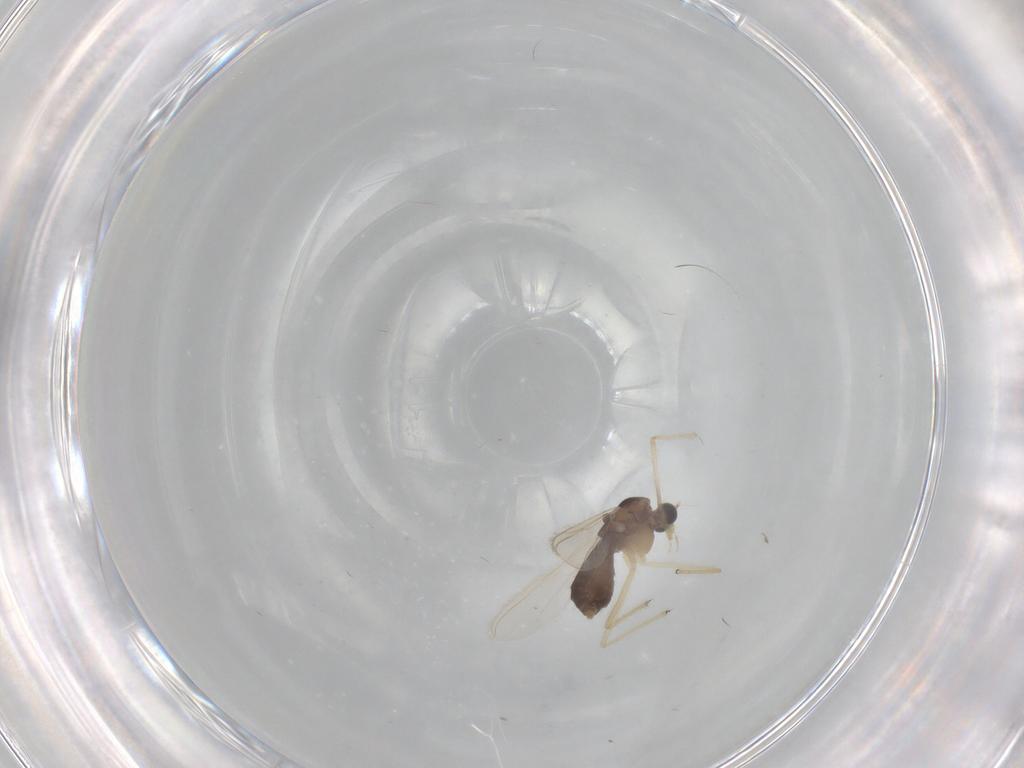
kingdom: Animalia
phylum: Arthropoda
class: Insecta
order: Diptera
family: Chironomidae
